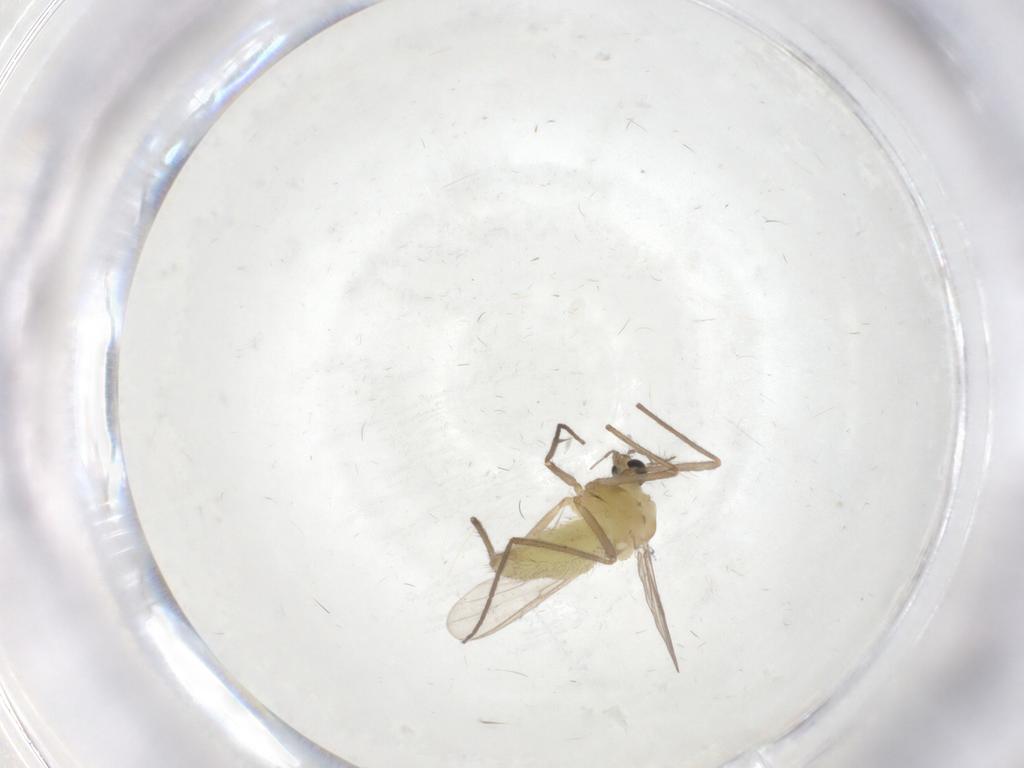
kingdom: Animalia
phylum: Arthropoda
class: Insecta
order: Diptera
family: Chironomidae
